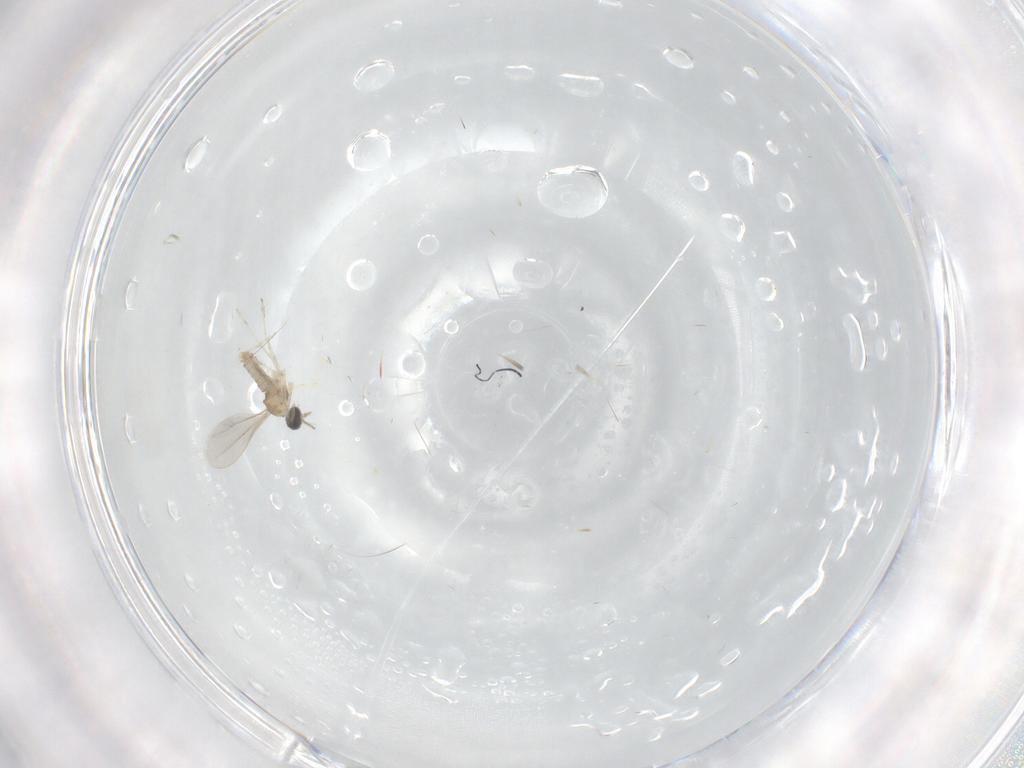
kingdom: Animalia
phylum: Arthropoda
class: Insecta
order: Diptera
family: Cecidomyiidae
